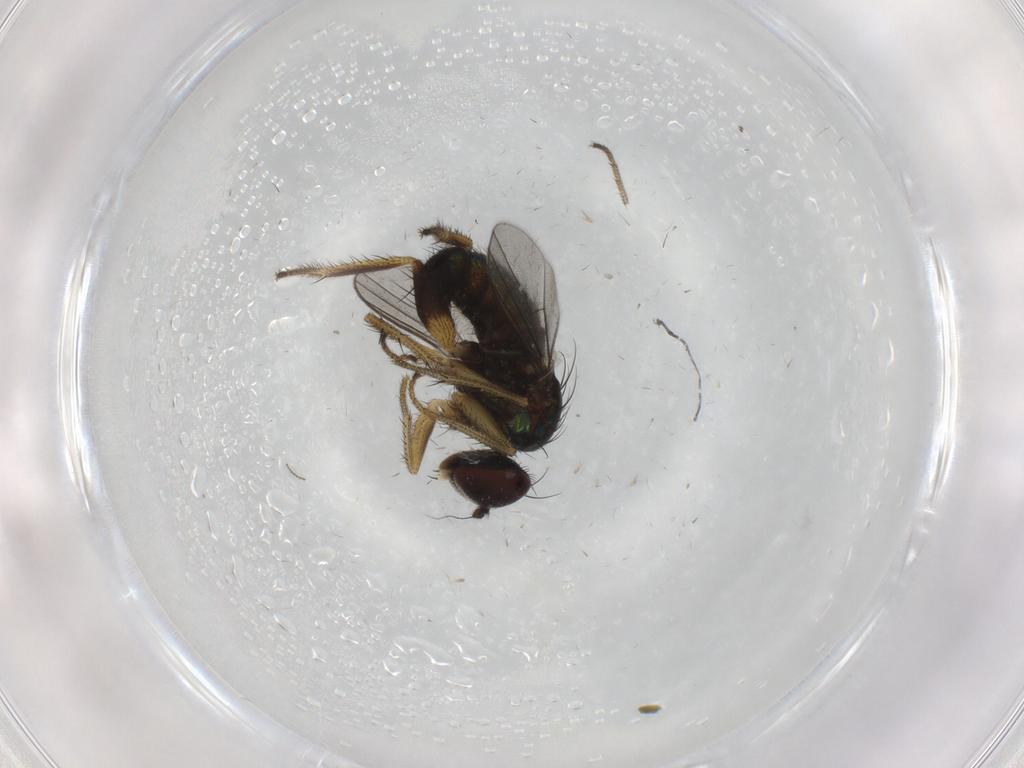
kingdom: Animalia
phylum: Arthropoda
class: Insecta
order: Diptera
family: Dolichopodidae
